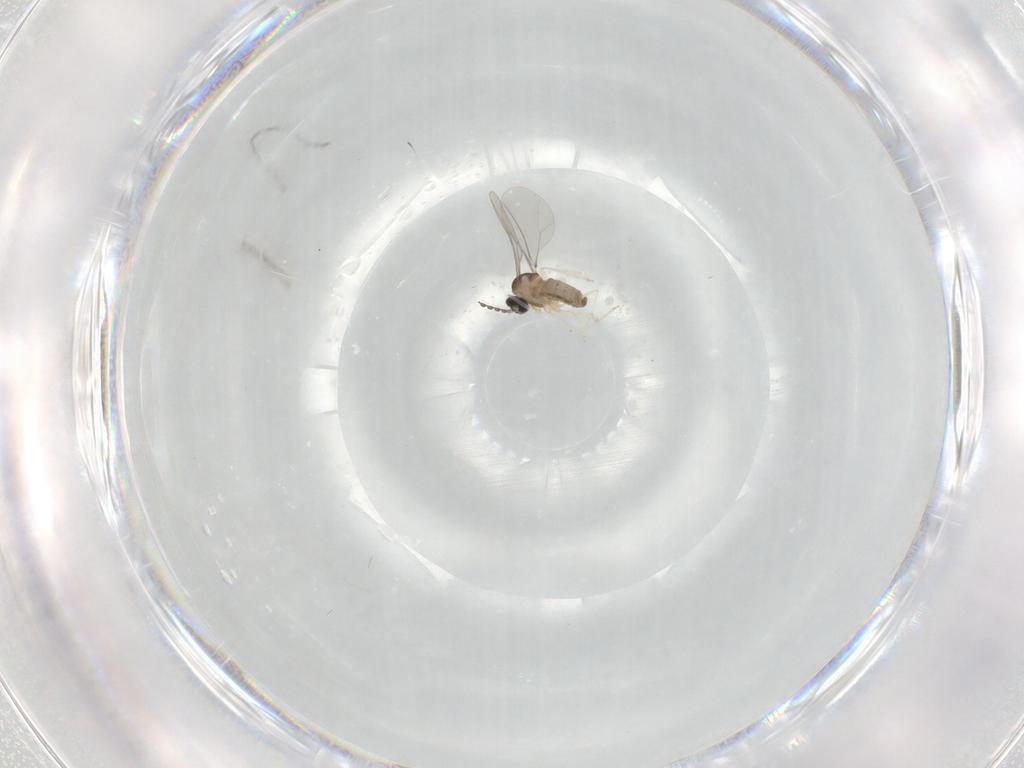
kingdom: Animalia
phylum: Arthropoda
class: Insecta
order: Diptera
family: Cecidomyiidae
